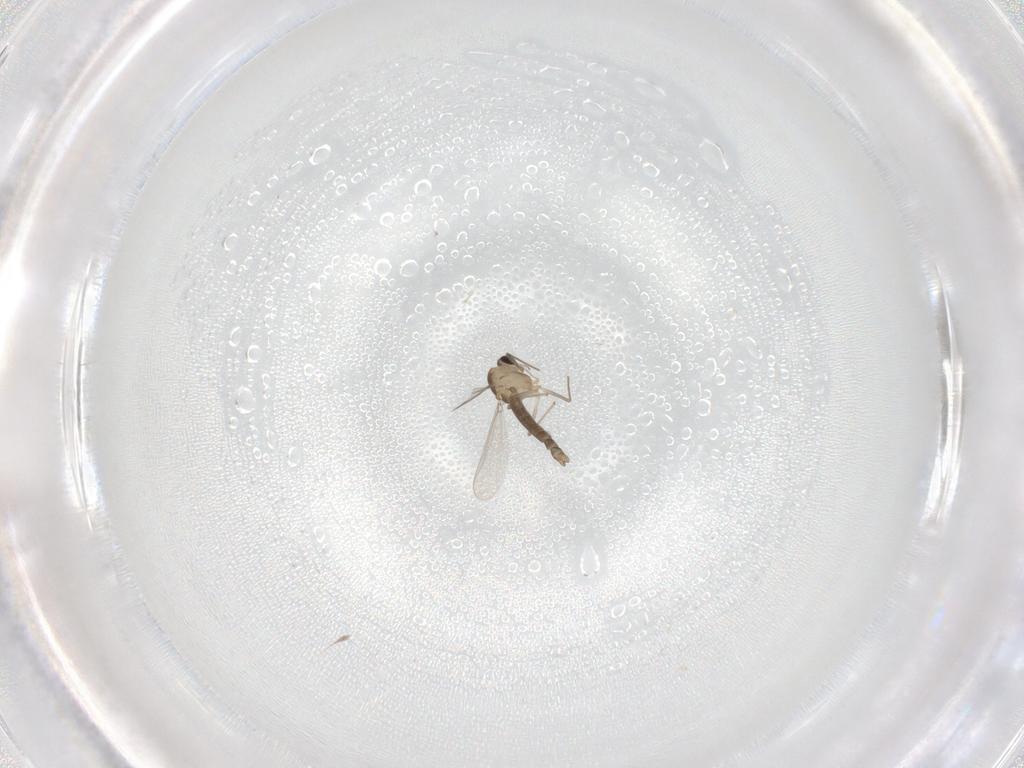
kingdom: Animalia
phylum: Arthropoda
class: Insecta
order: Diptera
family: Chironomidae
